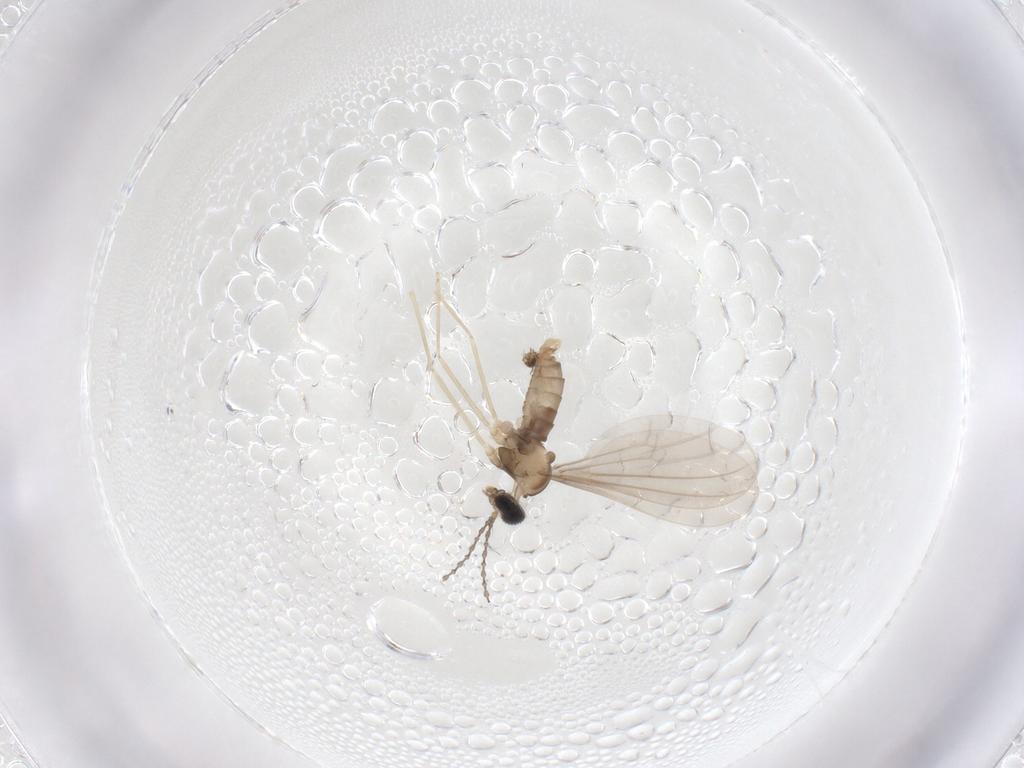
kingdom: Animalia
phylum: Arthropoda
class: Insecta
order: Diptera
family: Cecidomyiidae
